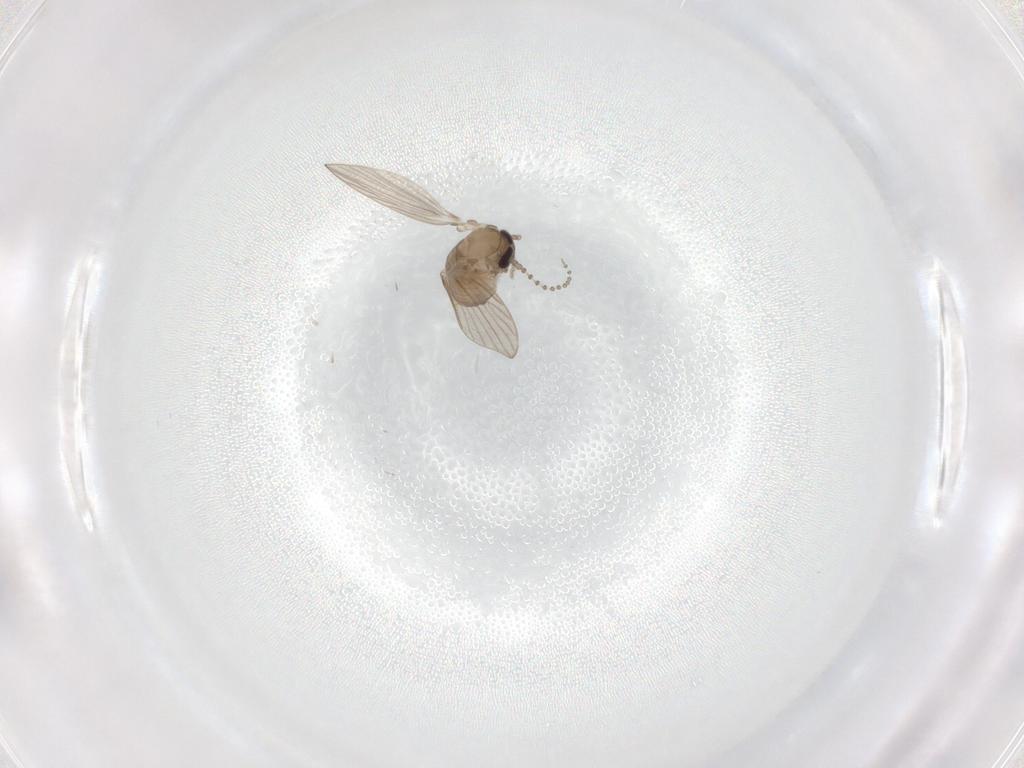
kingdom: Animalia
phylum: Arthropoda
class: Insecta
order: Diptera
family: Psychodidae
